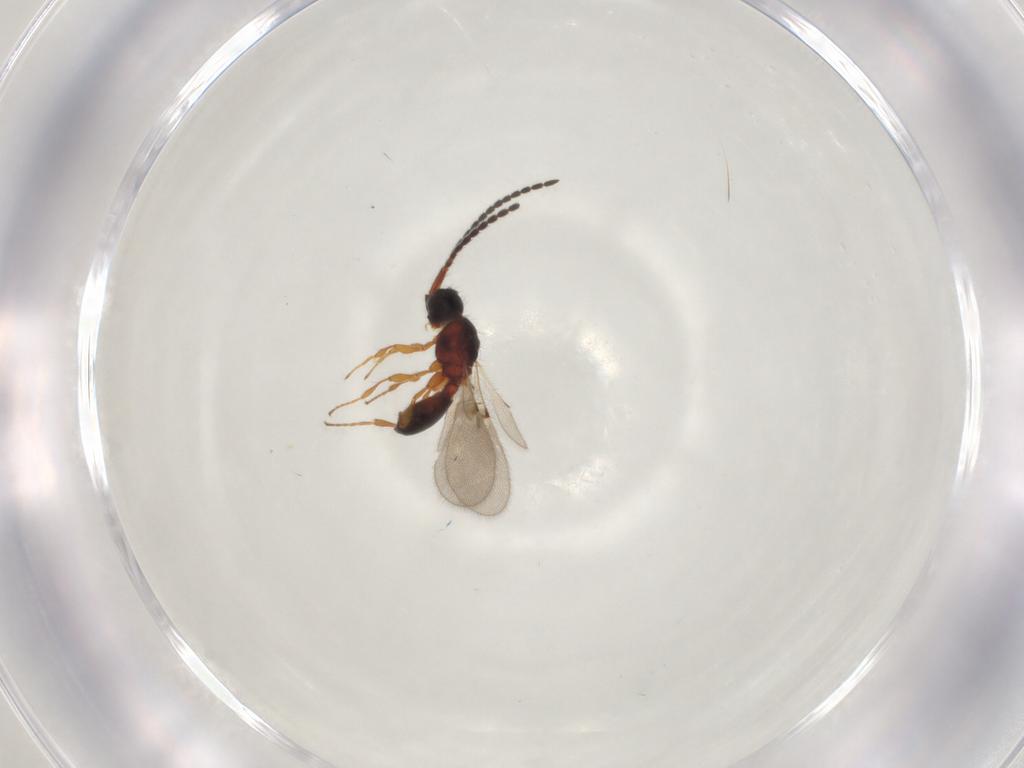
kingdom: Animalia
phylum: Arthropoda
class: Insecta
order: Hymenoptera
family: Diapriidae
